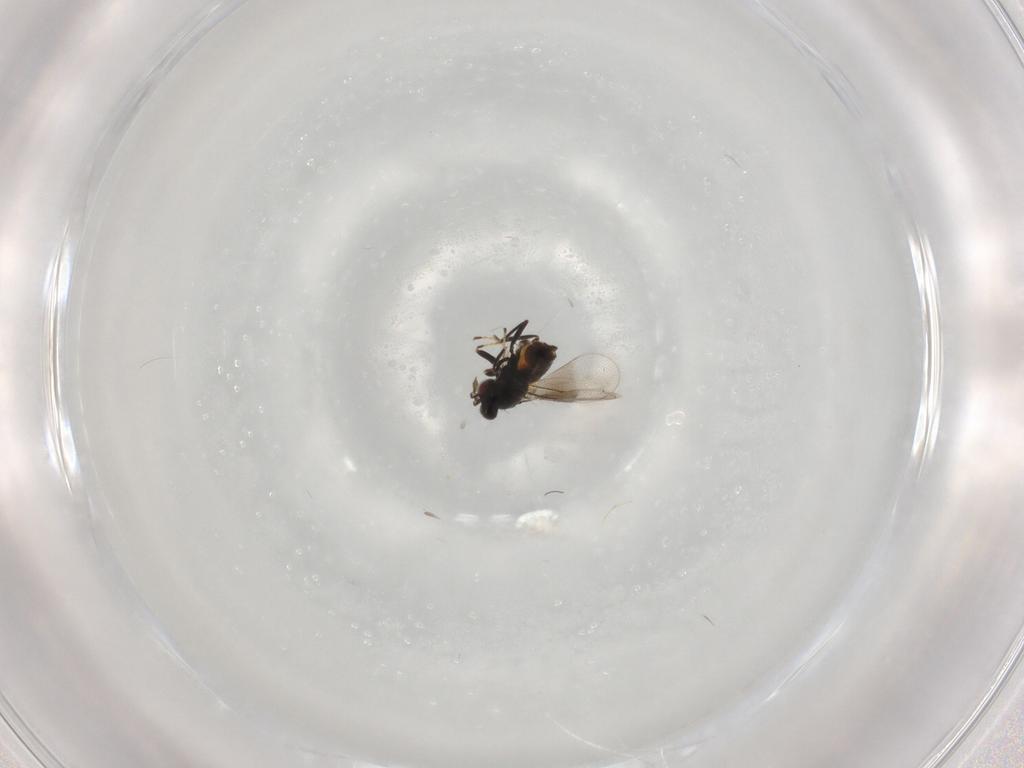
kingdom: Animalia
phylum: Arthropoda
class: Insecta
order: Hymenoptera
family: Eulophidae
